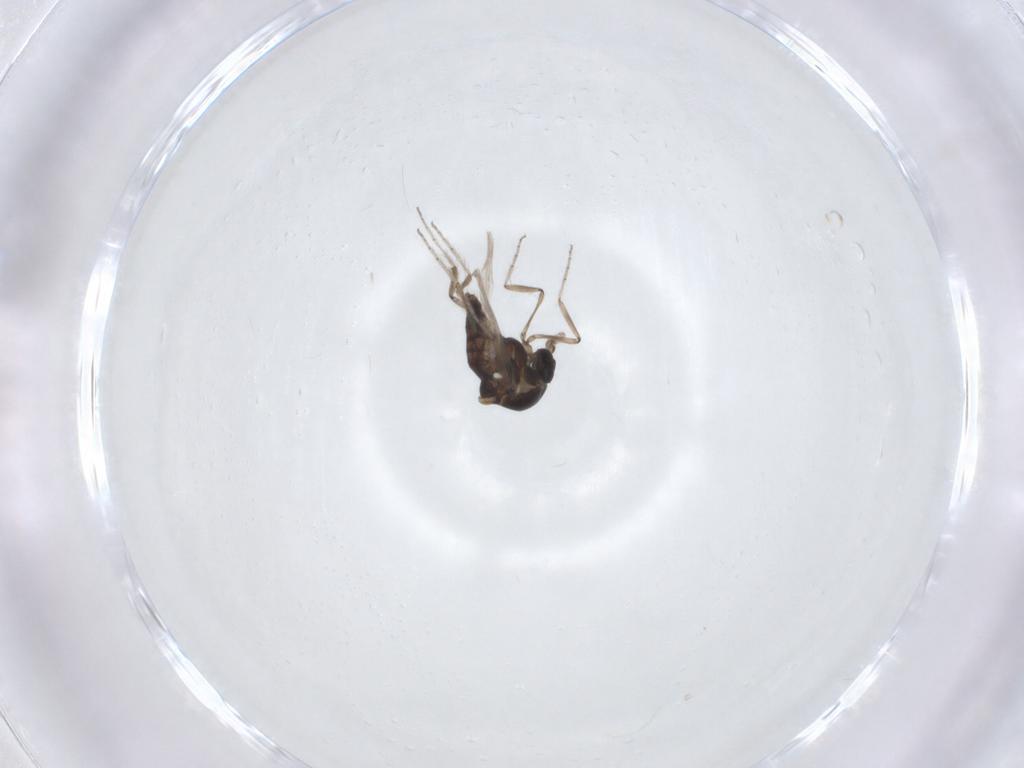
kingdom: Animalia
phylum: Arthropoda
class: Insecta
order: Diptera
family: Ceratopogonidae
